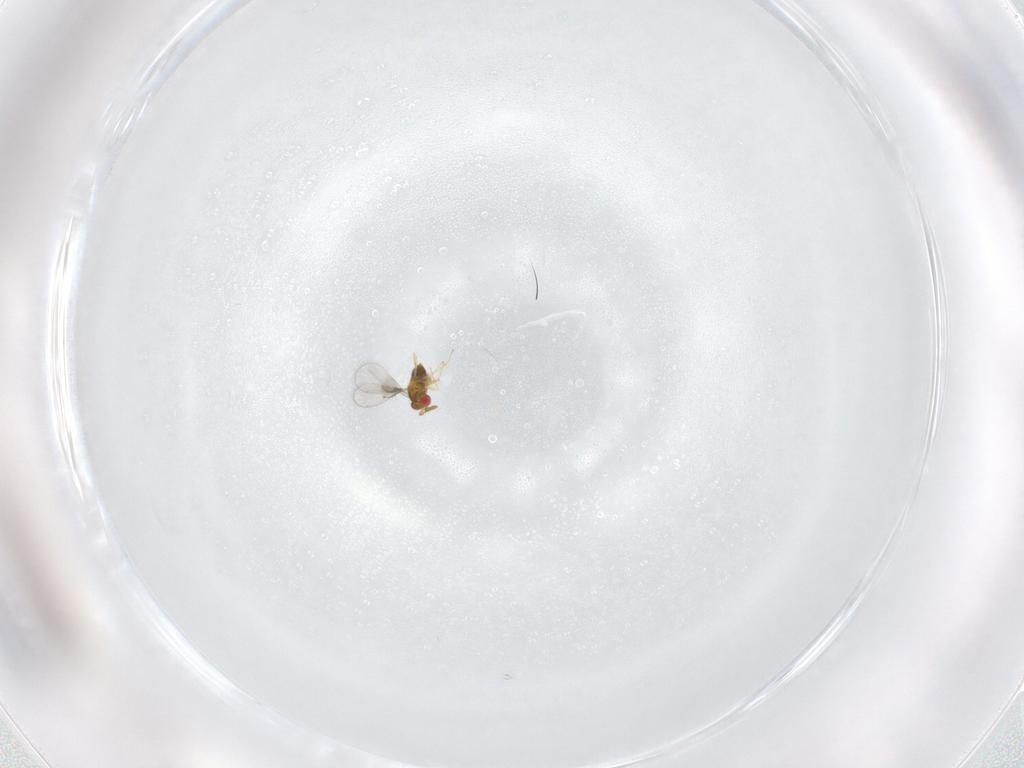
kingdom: Animalia
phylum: Arthropoda
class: Insecta
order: Hymenoptera
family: Trichogrammatidae
